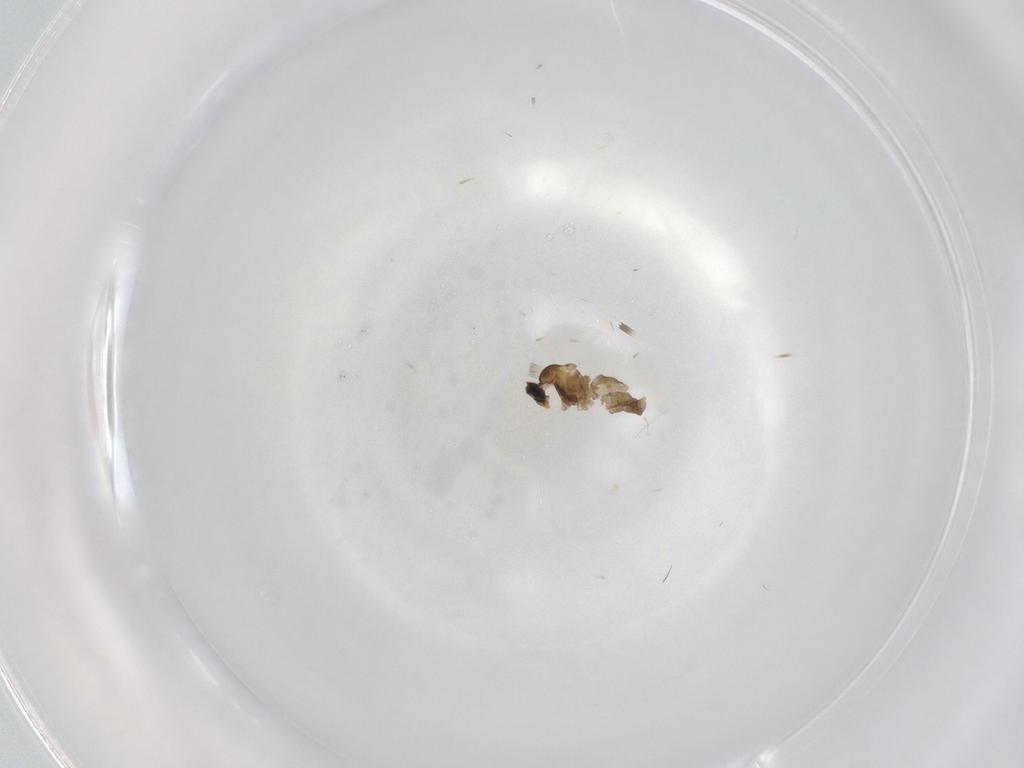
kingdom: Animalia
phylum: Arthropoda
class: Insecta
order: Diptera
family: Cecidomyiidae
